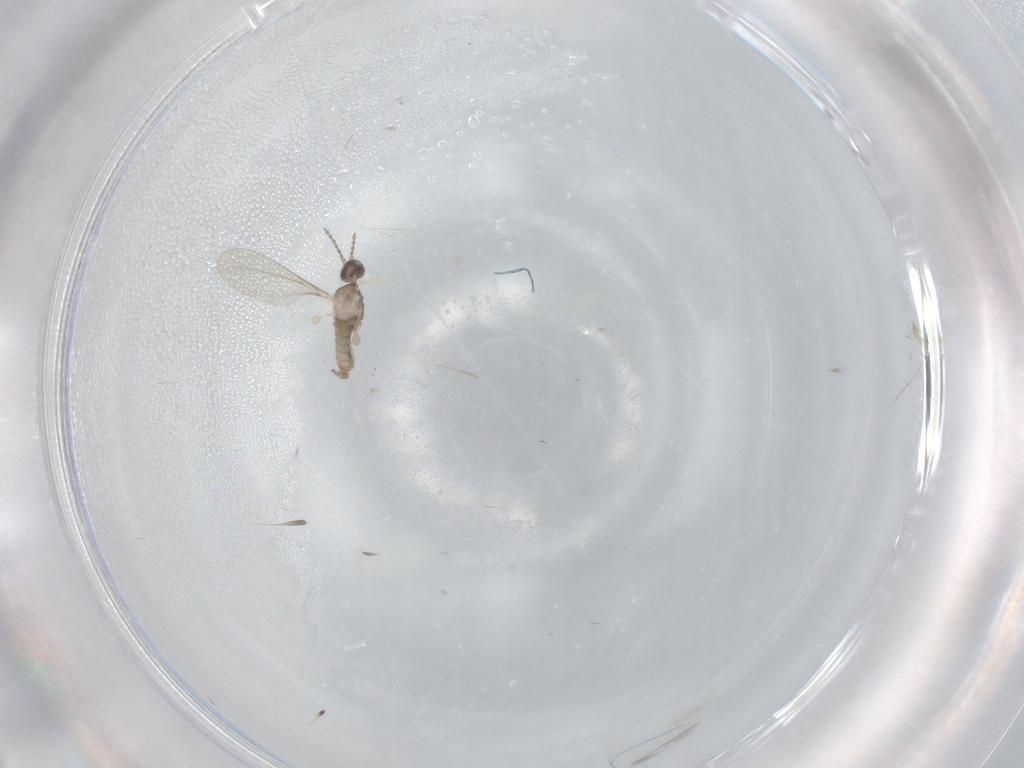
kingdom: Animalia
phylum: Arthropoda
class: Insecta
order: Diptera
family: Cecidomyiidae
